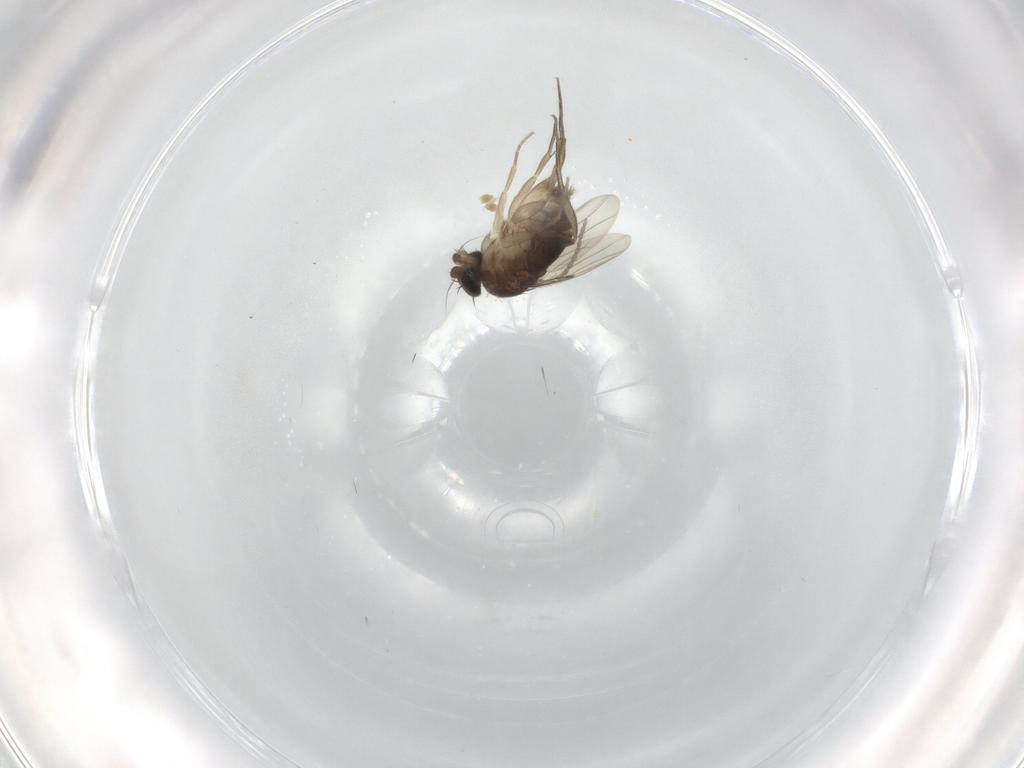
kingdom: Animalia
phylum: Arthropoda
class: Insecta
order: Diptera
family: Phoridae
